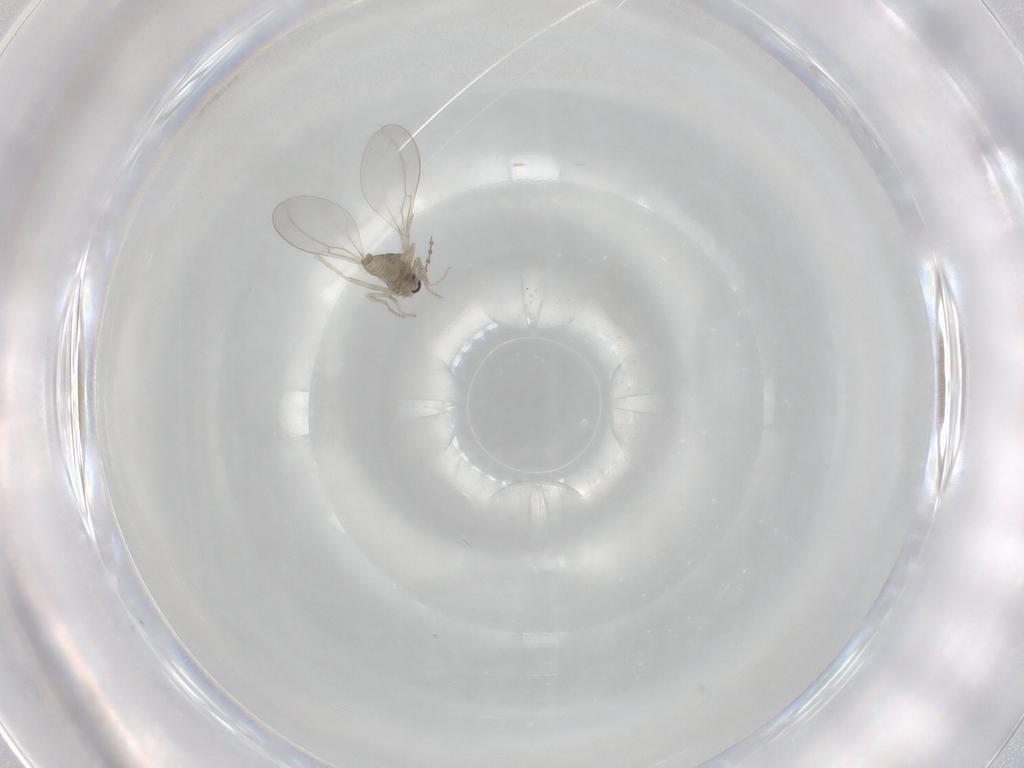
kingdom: Animalia
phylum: Arthropoda
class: Insecta
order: Diptera
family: Cecidomyiidae
